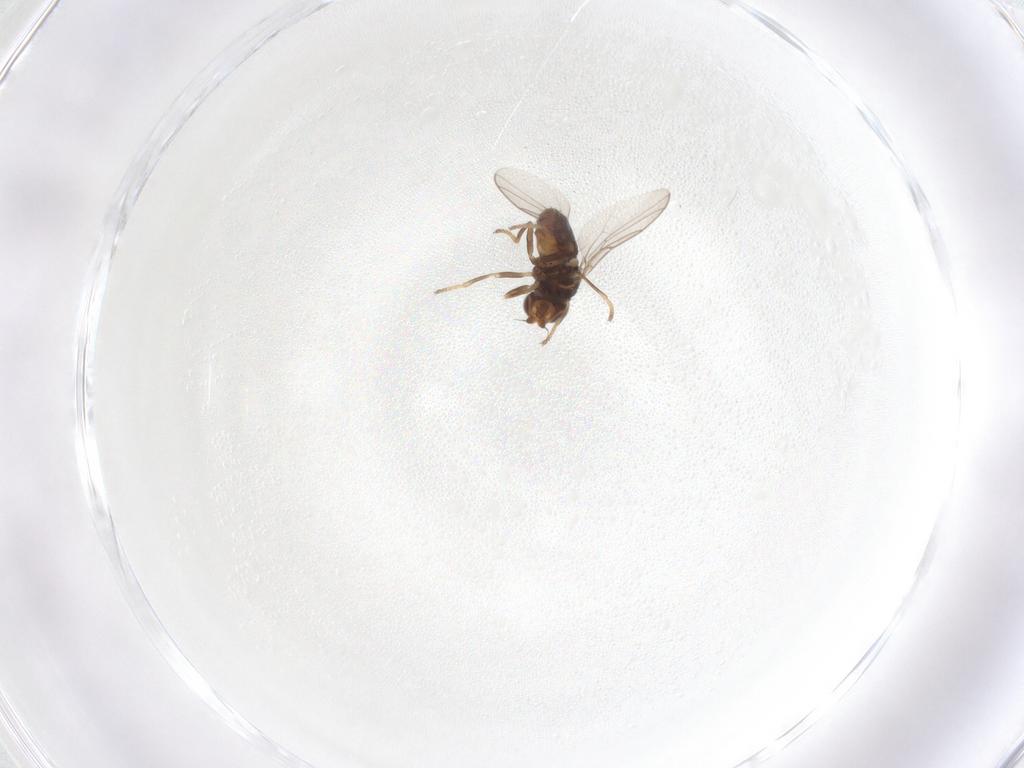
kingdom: Animalia
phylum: Arthropoda
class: Insecta
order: Diptera
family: Chloropidae
